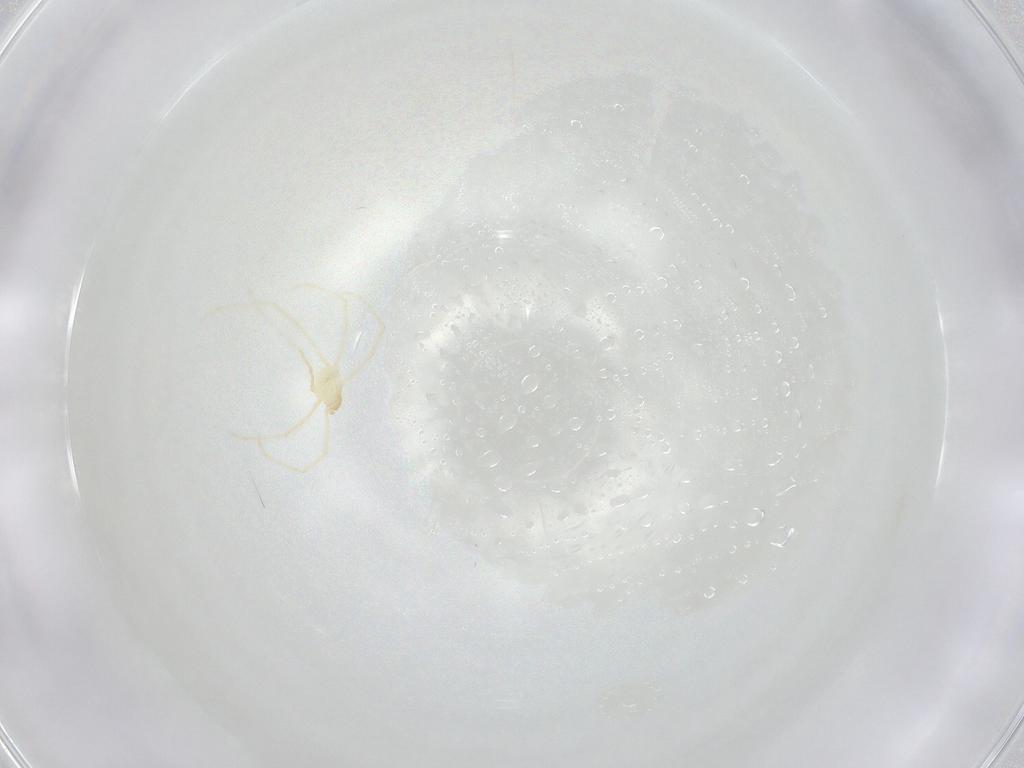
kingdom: Animalia
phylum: Arthropoda
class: Arachnida
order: Trombidiformes
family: Erythraeidae
